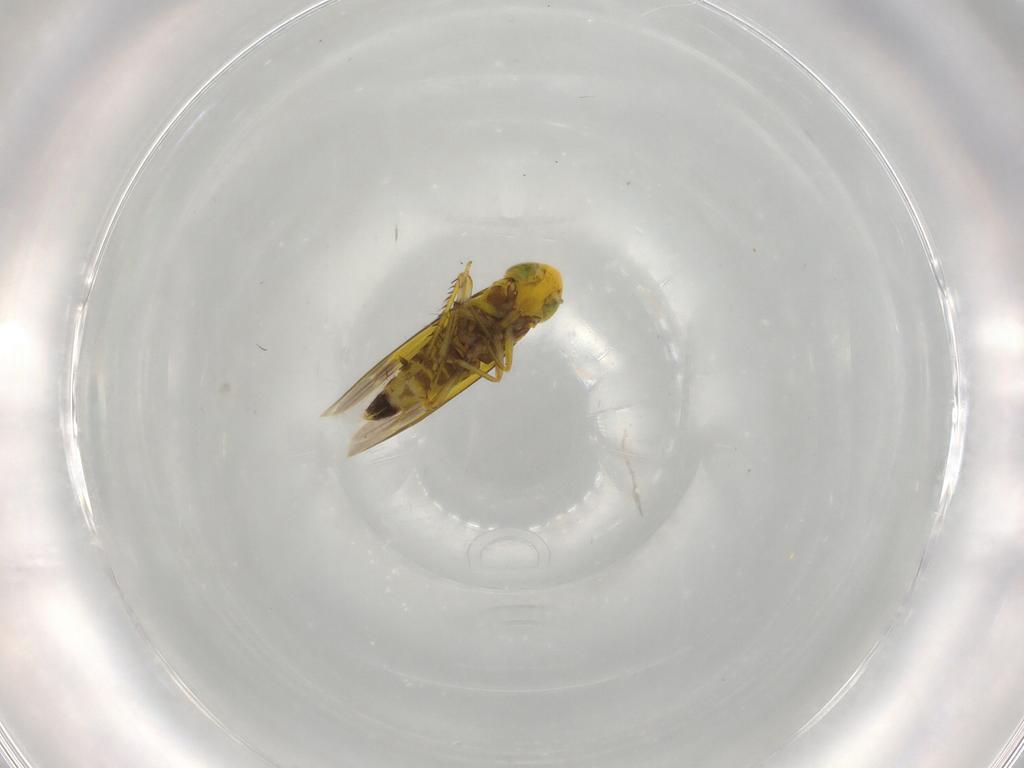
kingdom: Animalia
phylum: Arthropoda
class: Insecta
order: Hemiptera
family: Cicadellidae
